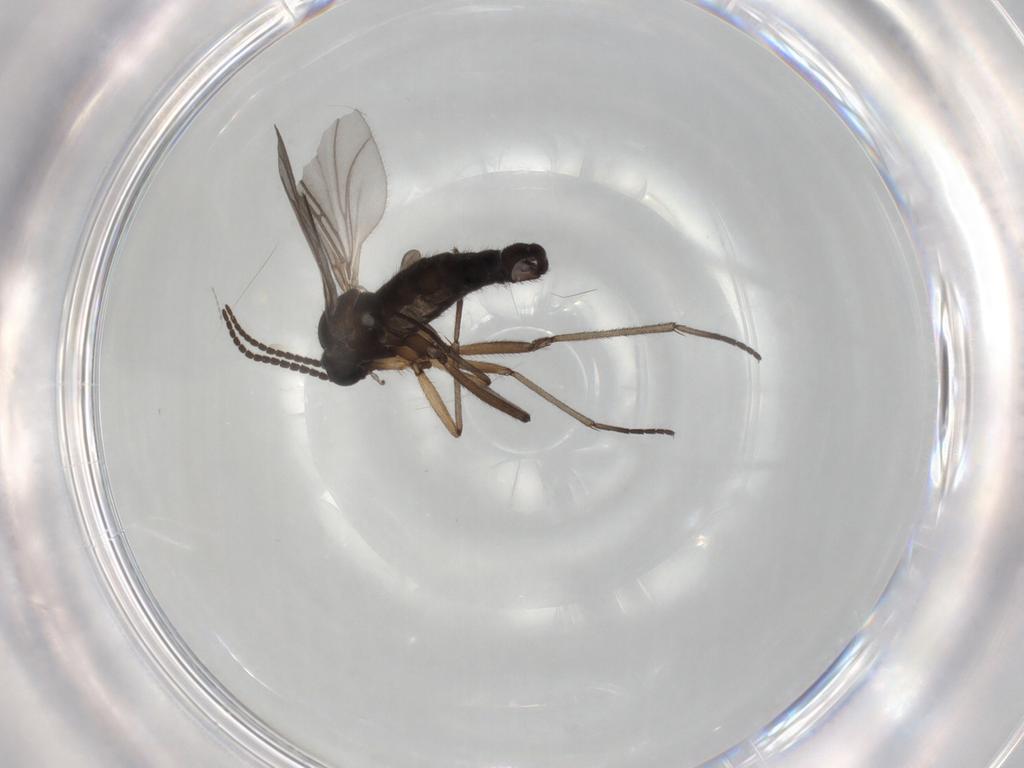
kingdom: Animalia
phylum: Arthropoda
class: Insecta
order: Diptera
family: Sciaridae
